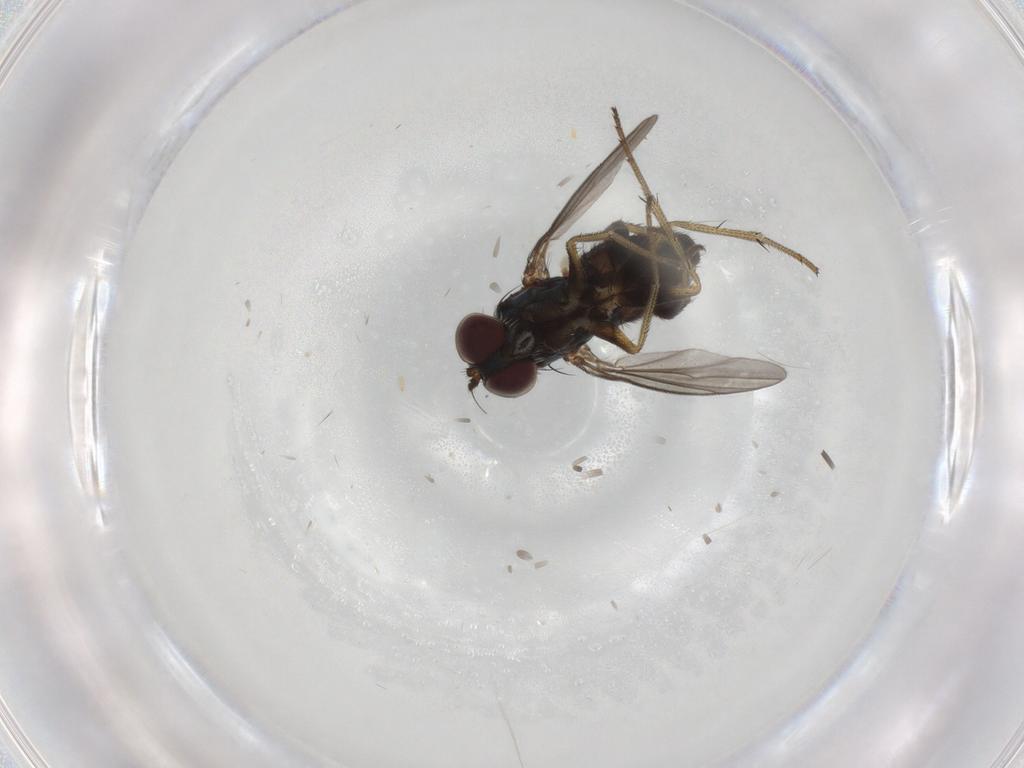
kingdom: Animalia
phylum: Arthropoda
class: Insecta
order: Diptera
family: Dolichopodidae
